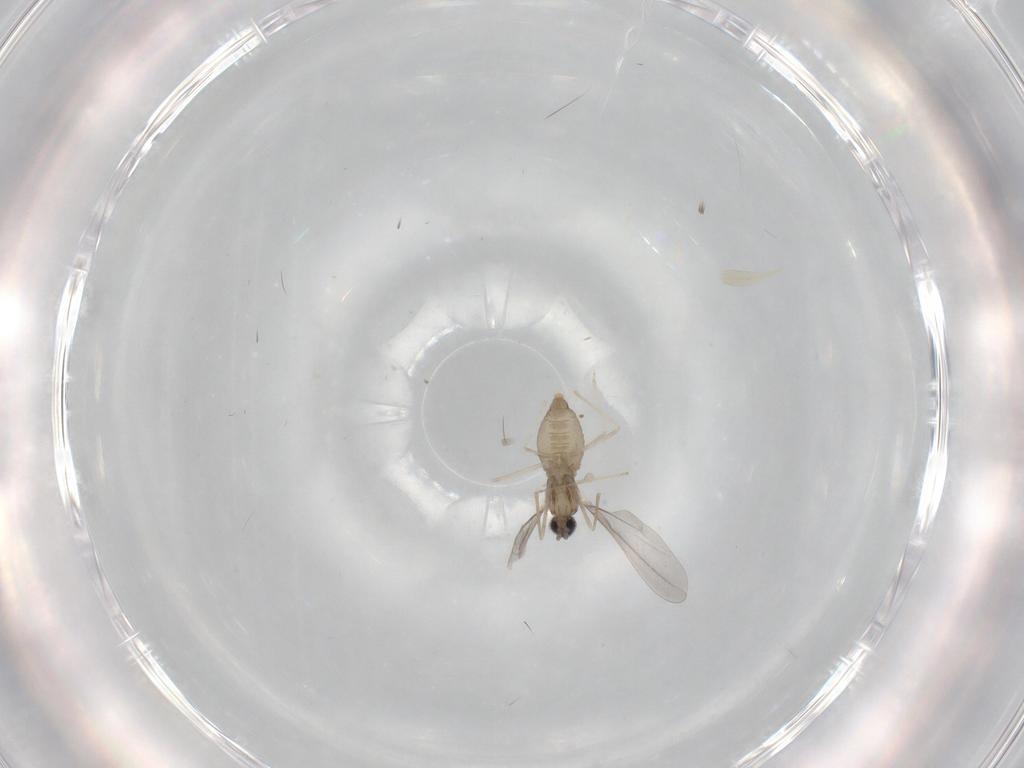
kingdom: Animalia
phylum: Arthropoda
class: Insecta
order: Diptera
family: Cecidomyiidae
